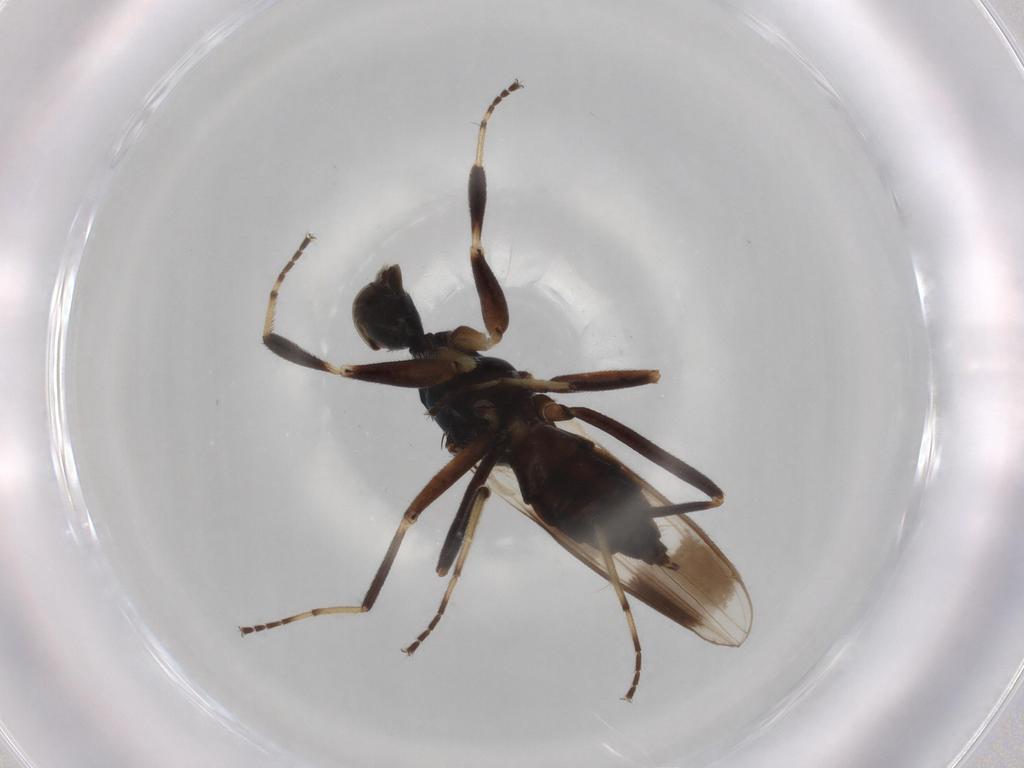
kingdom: Animalia
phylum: Arthropoda
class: Insecta
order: Diptera
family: Hybotidae
